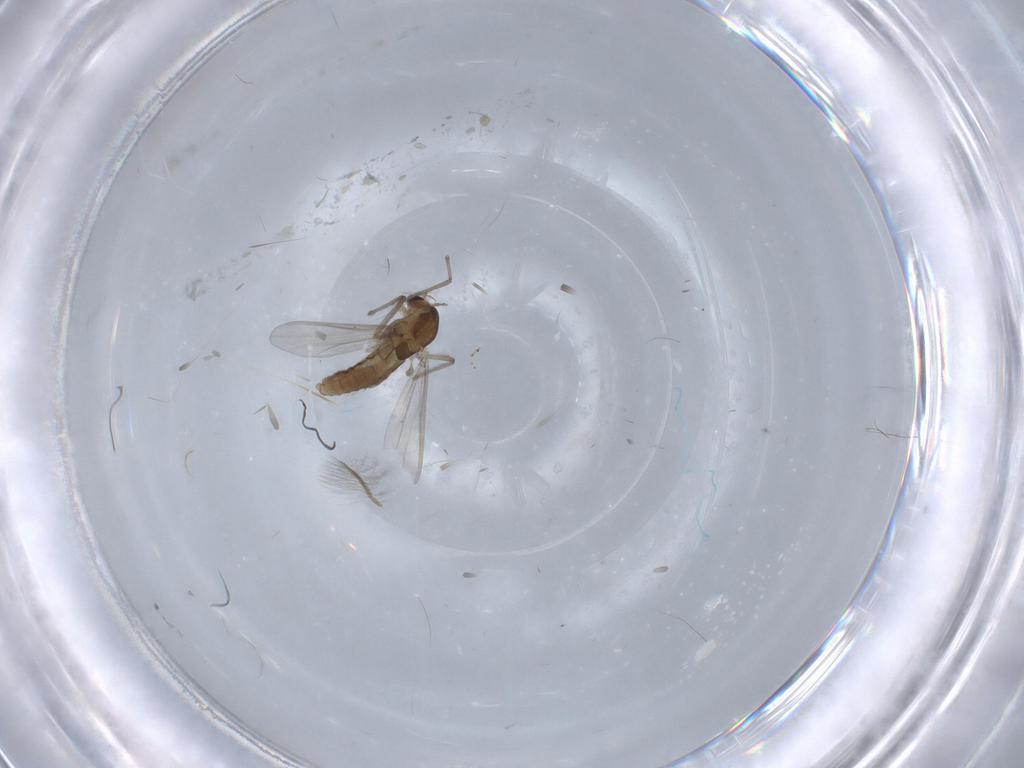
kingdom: Animalia
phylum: Arthropoda
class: Insecta
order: Diptera
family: Chironomidae
